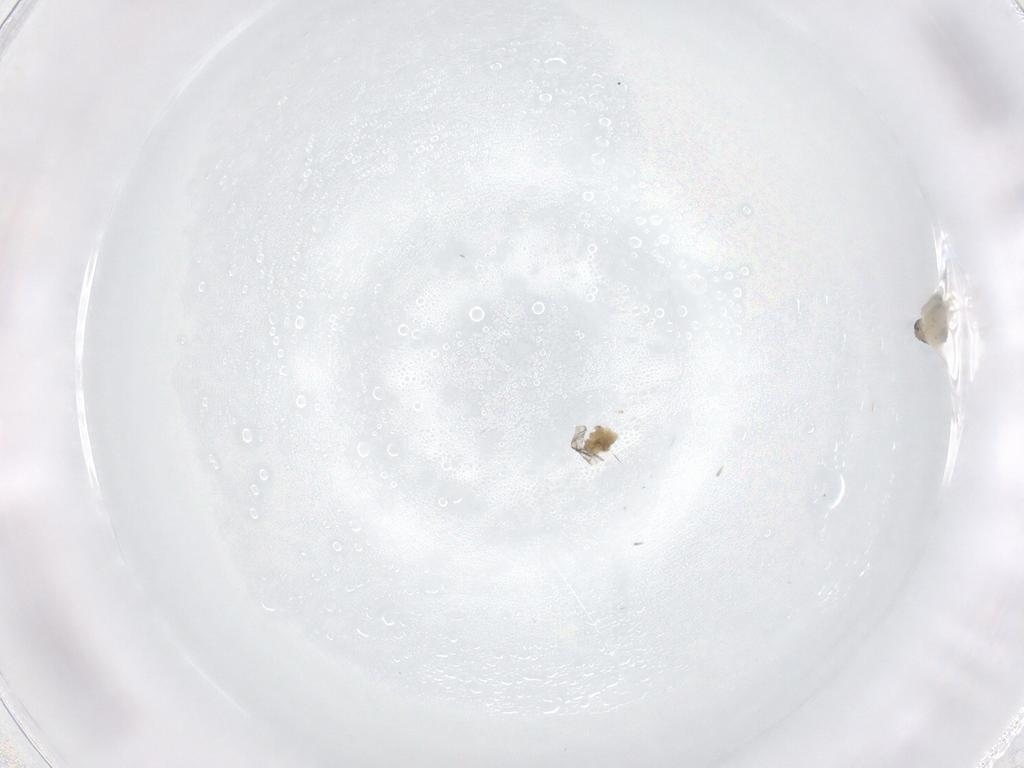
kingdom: Animalia
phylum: Arthropoda
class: Insecta
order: Diptera
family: Cecidomyiidae
